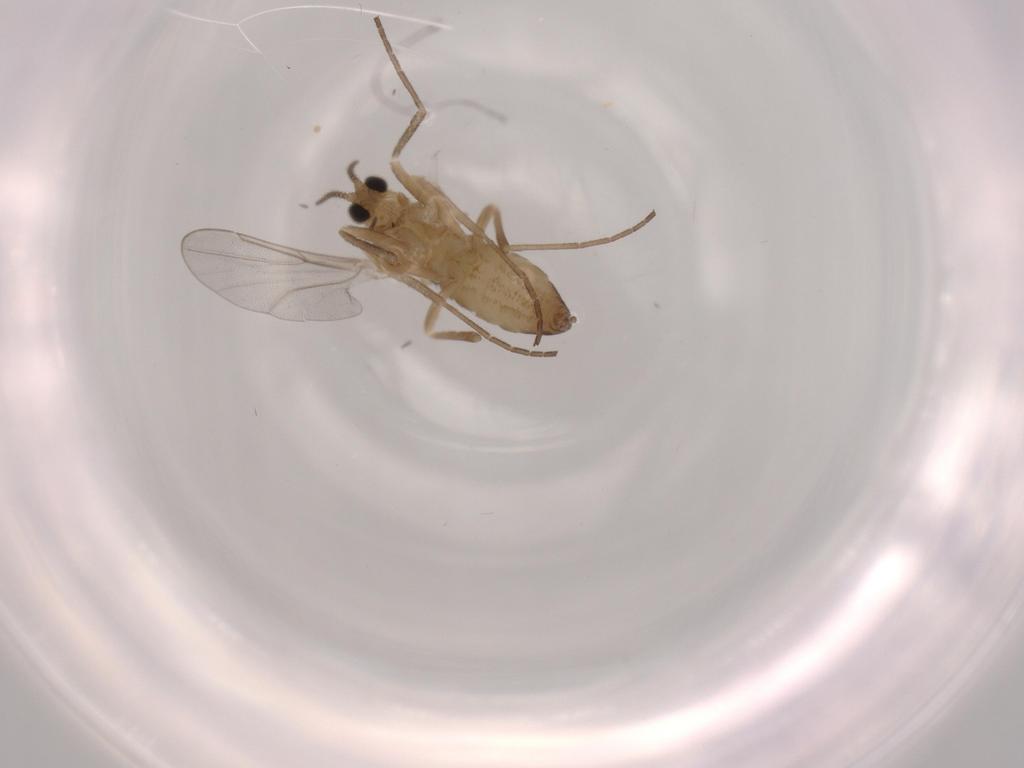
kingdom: Animalia
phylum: Arthropoda
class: Insecta
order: Diptera
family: Cecidomyiidae
